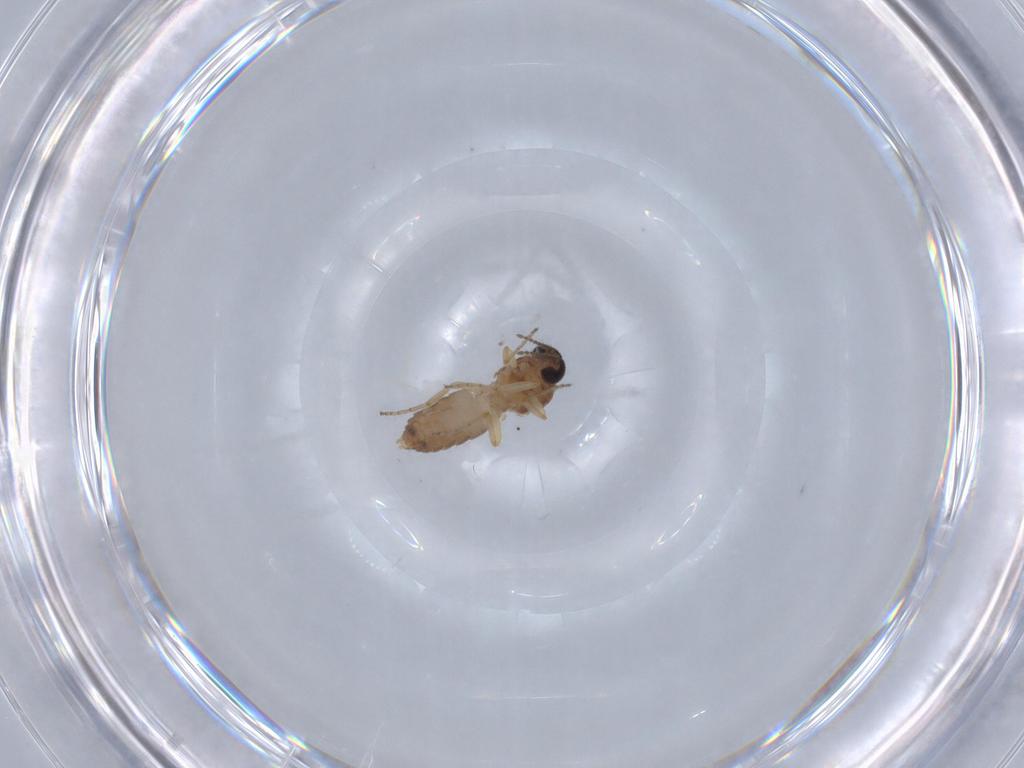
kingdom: Animalia
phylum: Arthropoda
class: Insecta
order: Diptera
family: Ceratopogonidae
